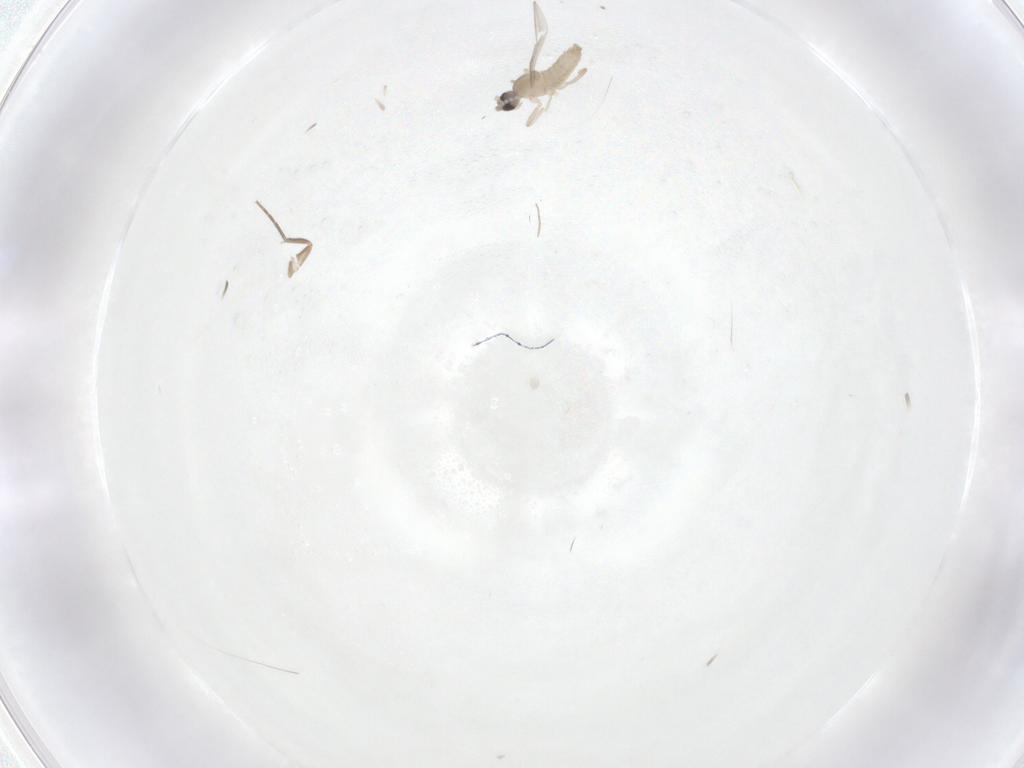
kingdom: Animalia
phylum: Arthropoda
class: Insecta
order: Diptera
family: Cecidomyiidae
